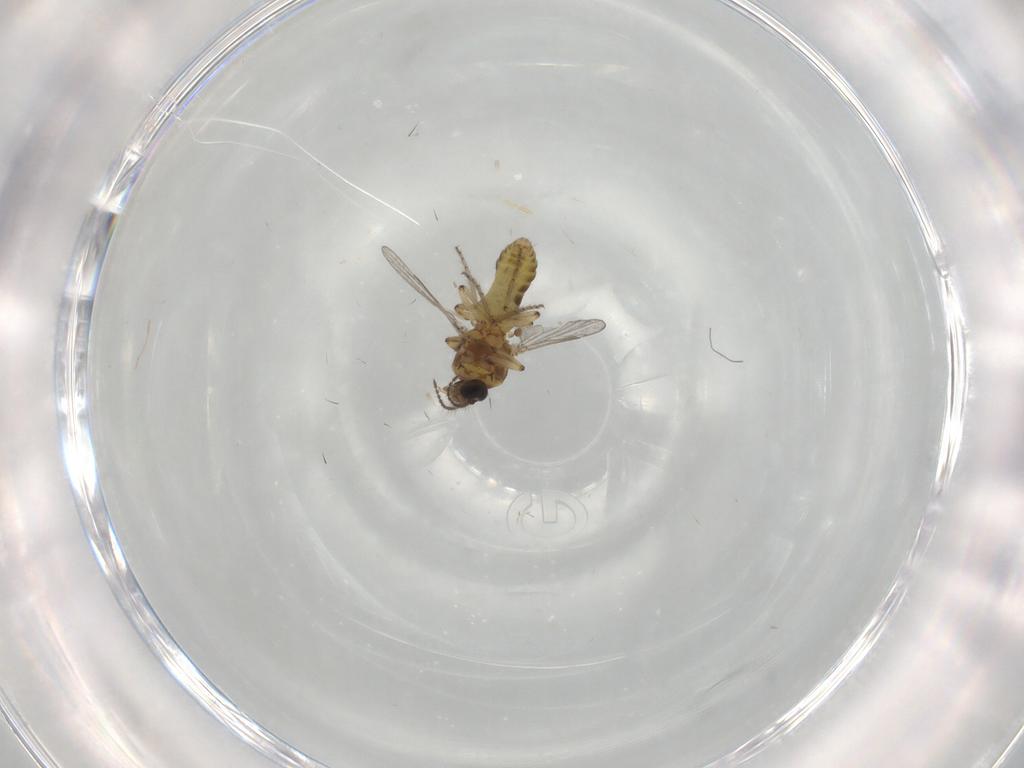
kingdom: Animalia
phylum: Arthropoda
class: Insecta
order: Diptera
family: Ceratopogonidae
